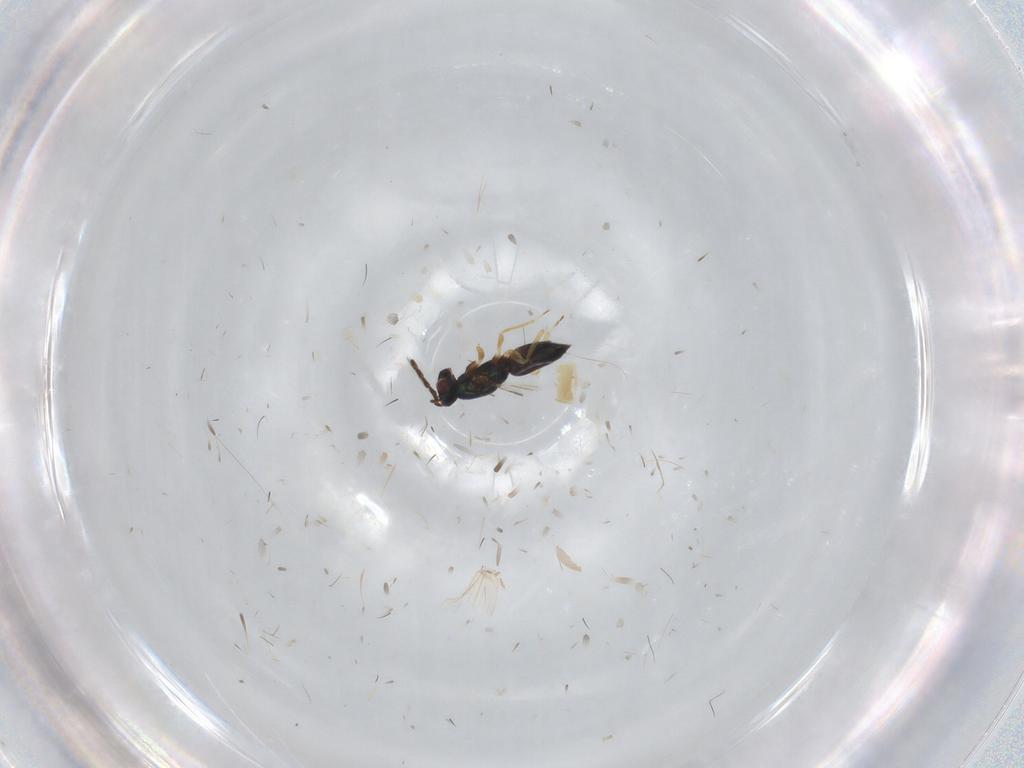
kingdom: Animalia
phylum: Arthropoda
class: Insecta
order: Hymenoptera
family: Eulophidae
